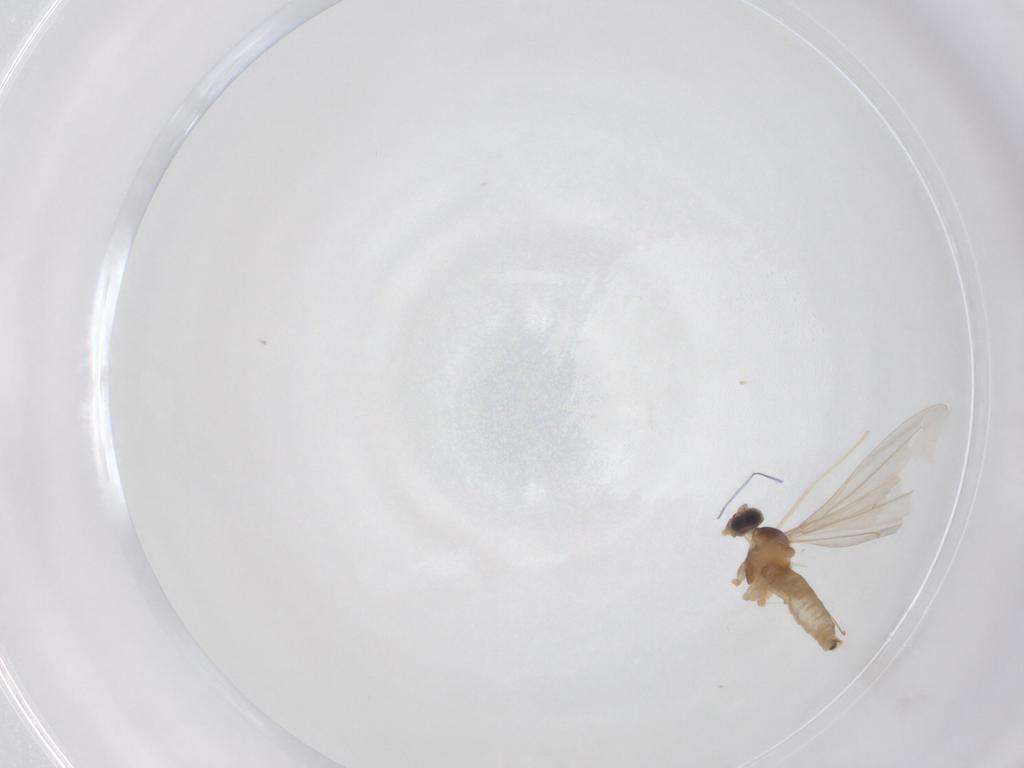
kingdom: Animalia
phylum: Arthropoda
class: Insecta
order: Diptera
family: Cecidomyiidae
